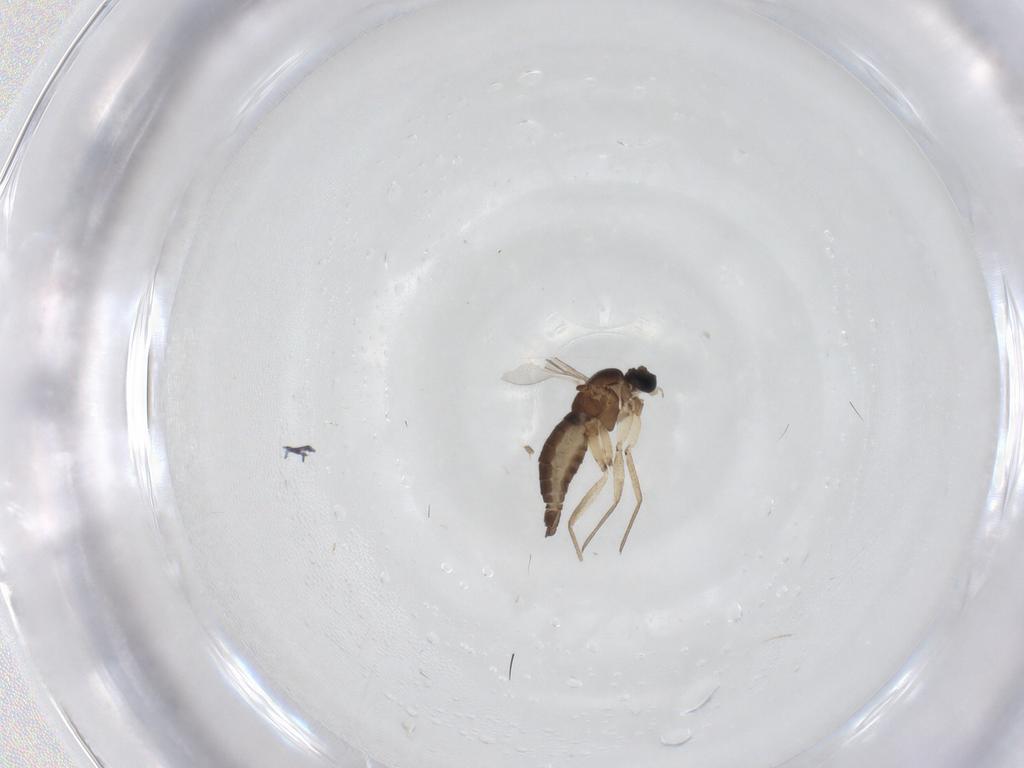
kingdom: Animalia
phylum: Arthropoda
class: Insecta
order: Diptera
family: Sciaridae
